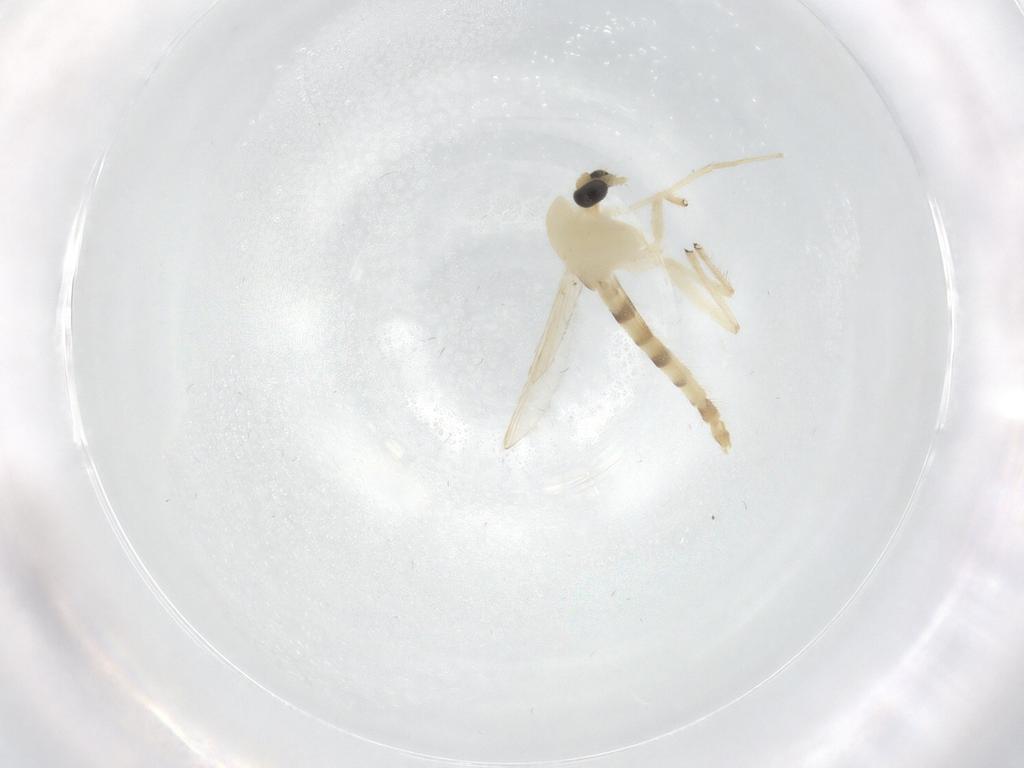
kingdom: Animalia
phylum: Arthropoda
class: Insecta
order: Diptera
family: Chironomidae
